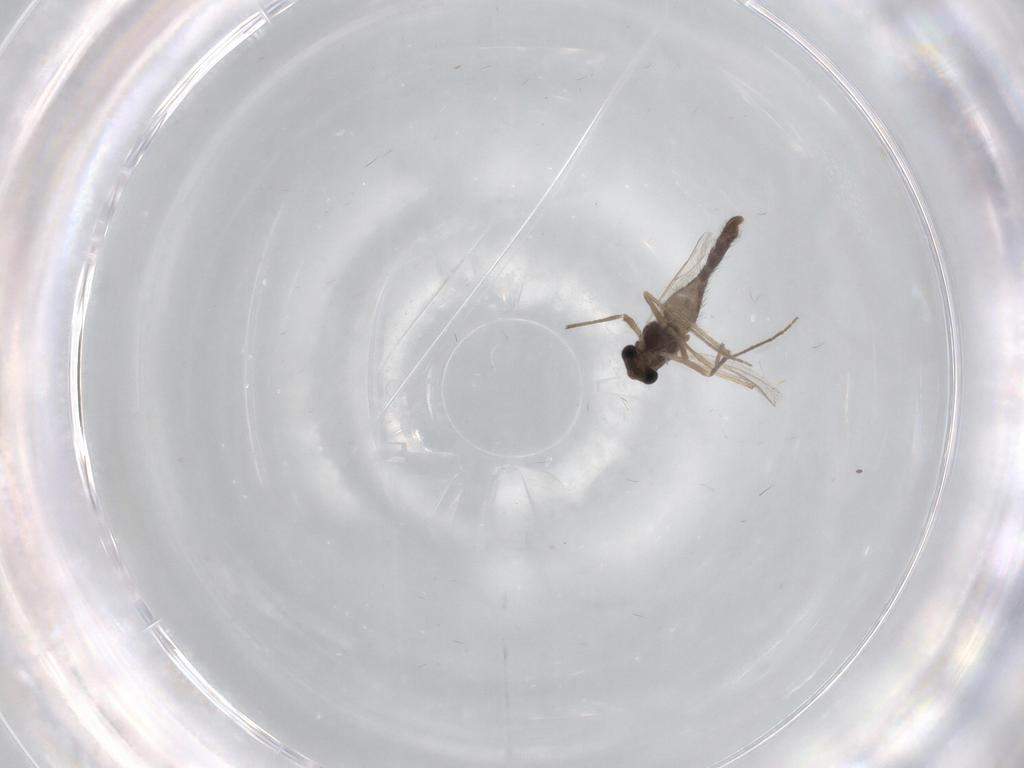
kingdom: Animalia
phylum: Arthropoda
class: Insecta
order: Diptera
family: Chironomidae
